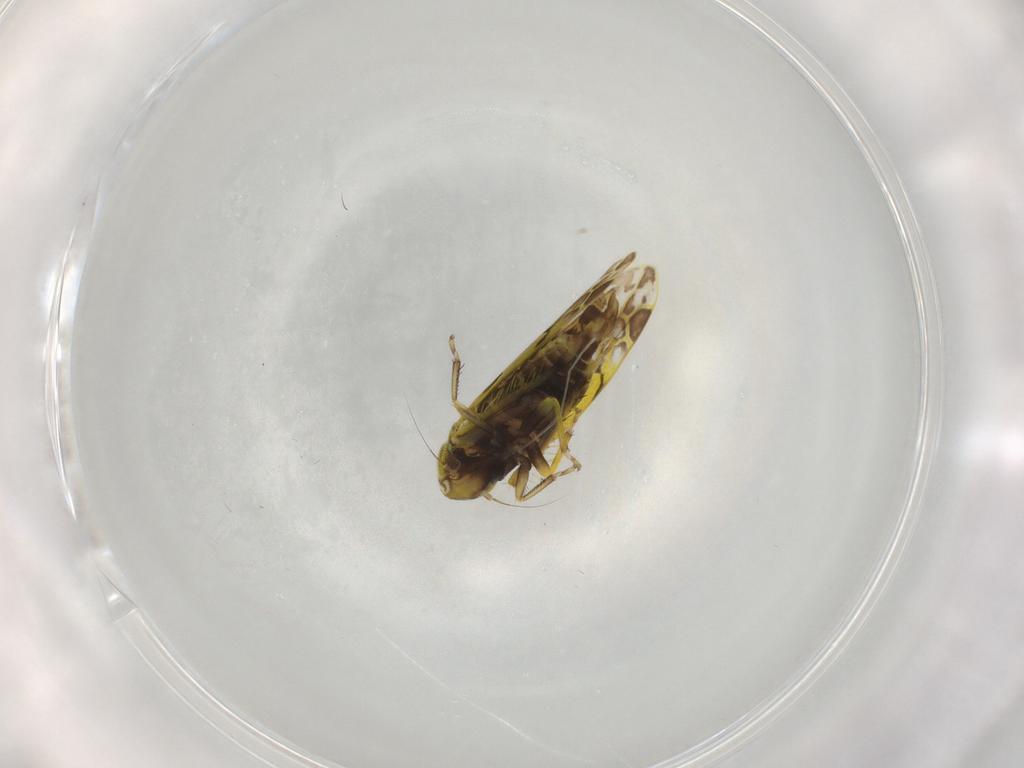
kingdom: Animalia
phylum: Arthropoda
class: Insecta
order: Hemiptera
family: Cicadellidae
